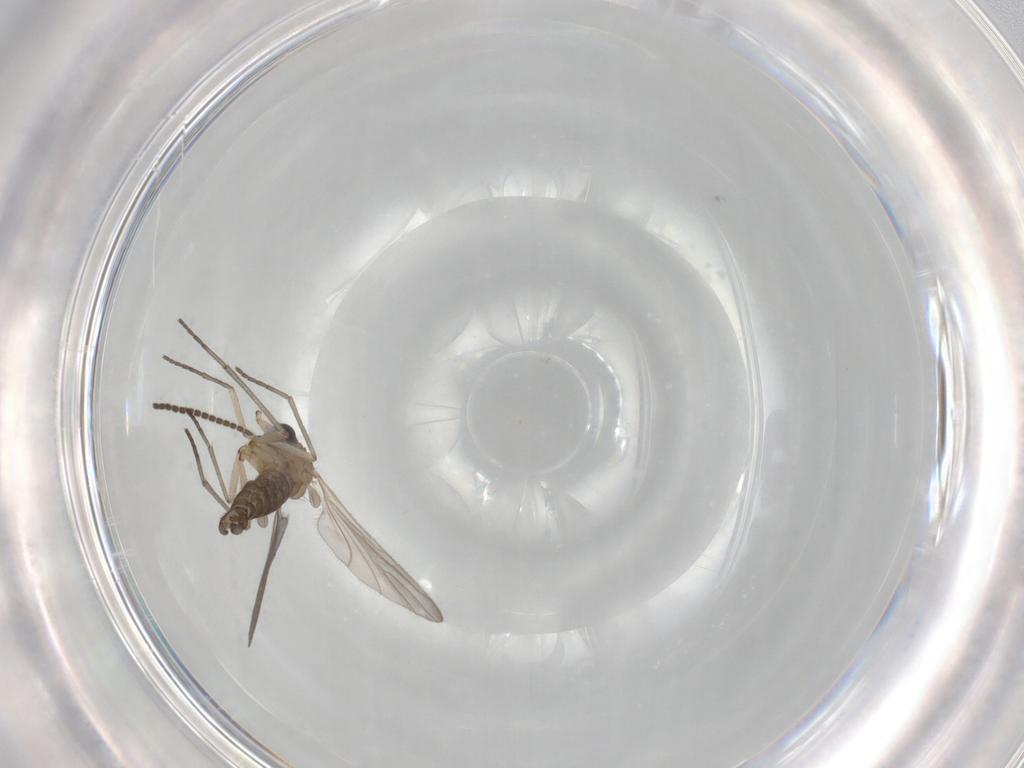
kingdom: Animalia
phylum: Arthropoda
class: Insecta
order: Diptera
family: Sciaridae
